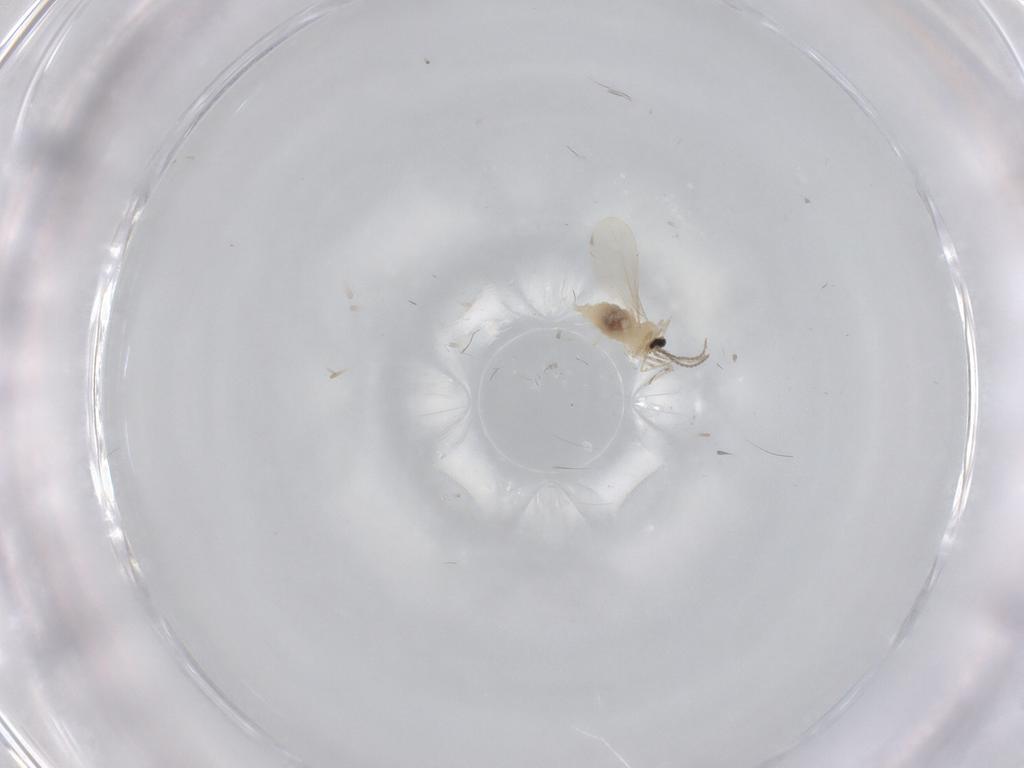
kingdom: Animalia
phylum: Arthropoda
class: Insecta
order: Diptera
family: Cecidomyiidae
